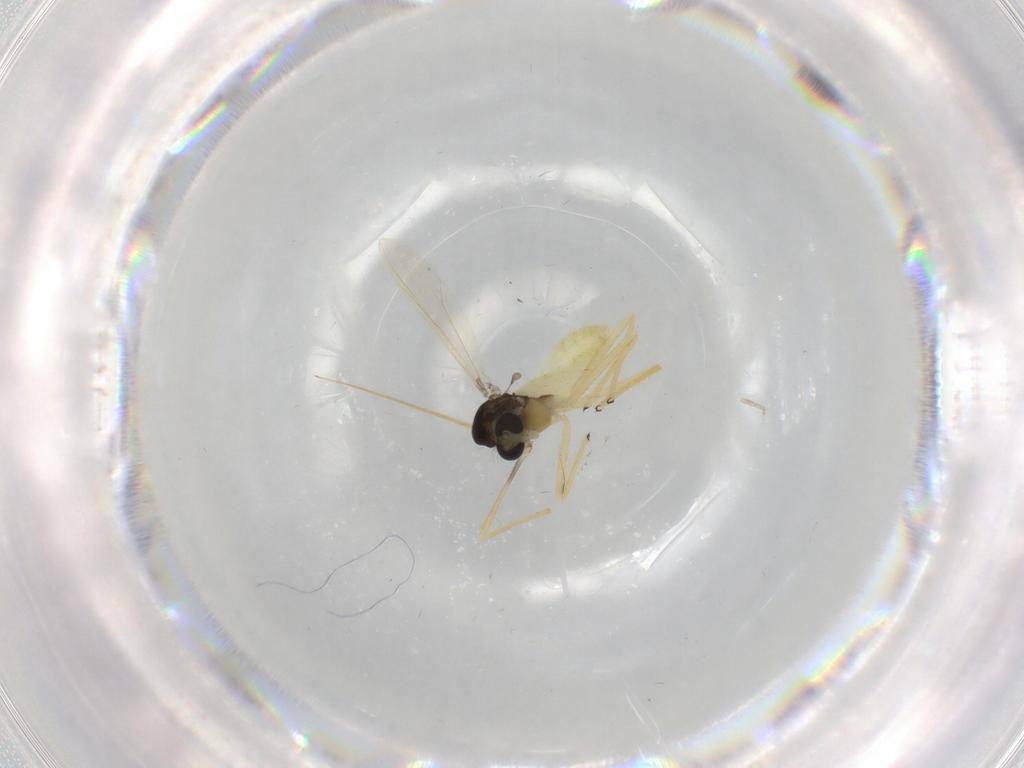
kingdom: Animalia
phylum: Arthropoda
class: Insecta
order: Diptera
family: Chironomidae
